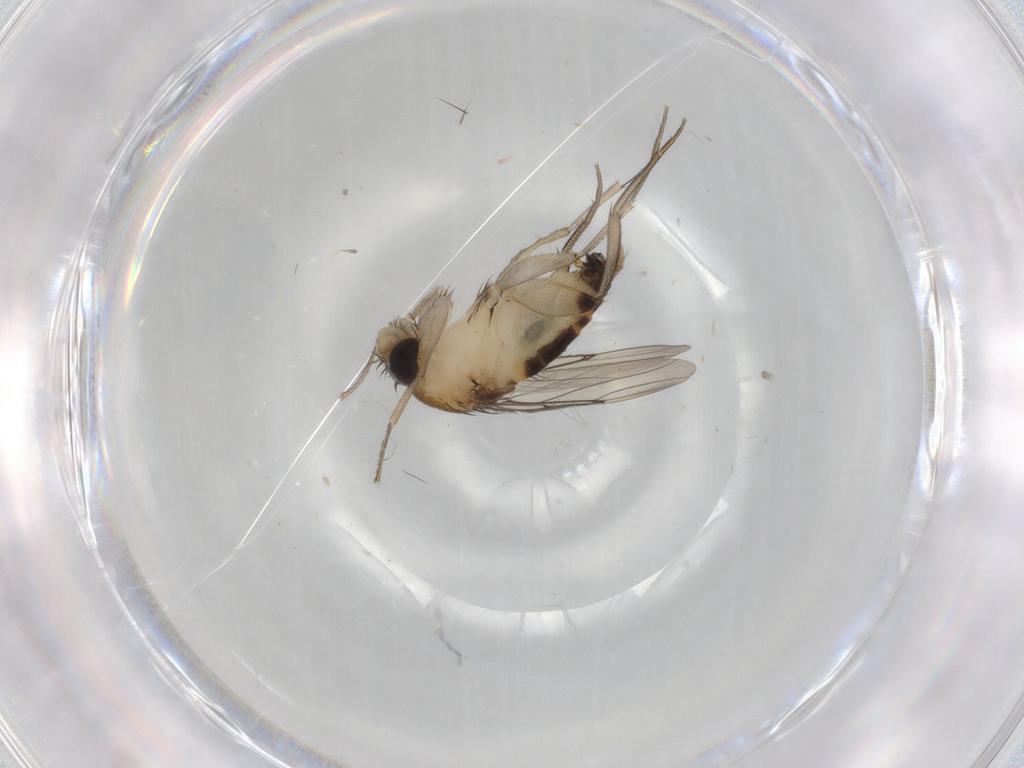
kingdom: Animalia
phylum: Arthropoda
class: Insecta
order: Diptera
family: Phoridae
